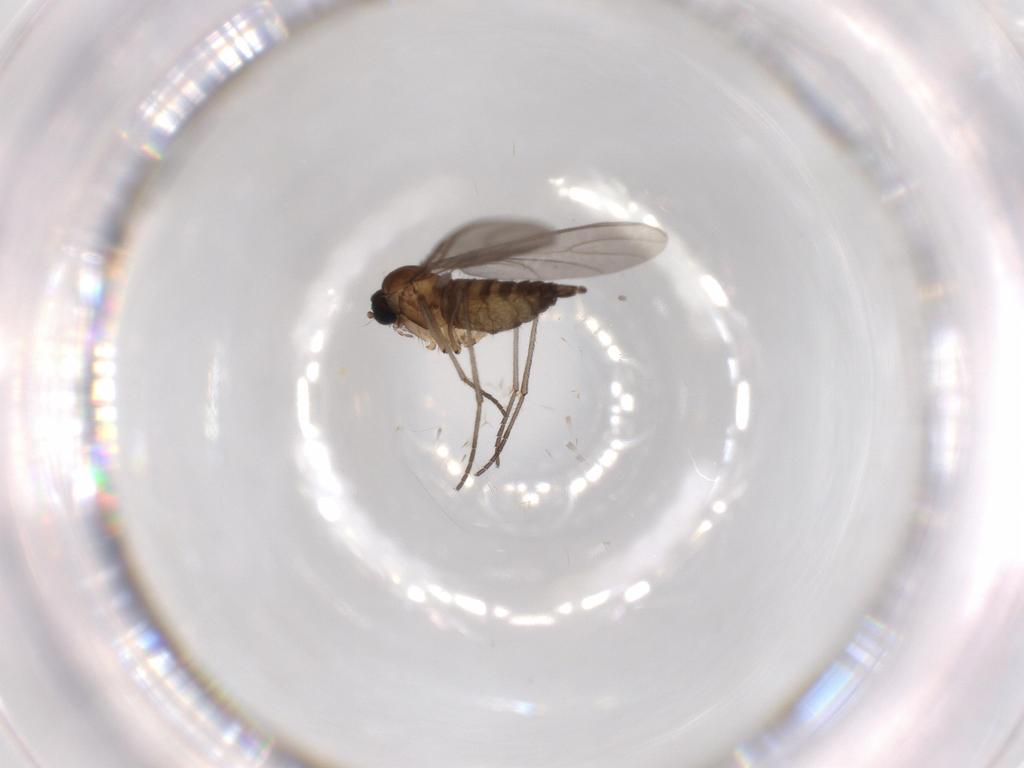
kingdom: Animalia
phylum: Arthropoda
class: Insecta
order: Diptera
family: Sciaridae
